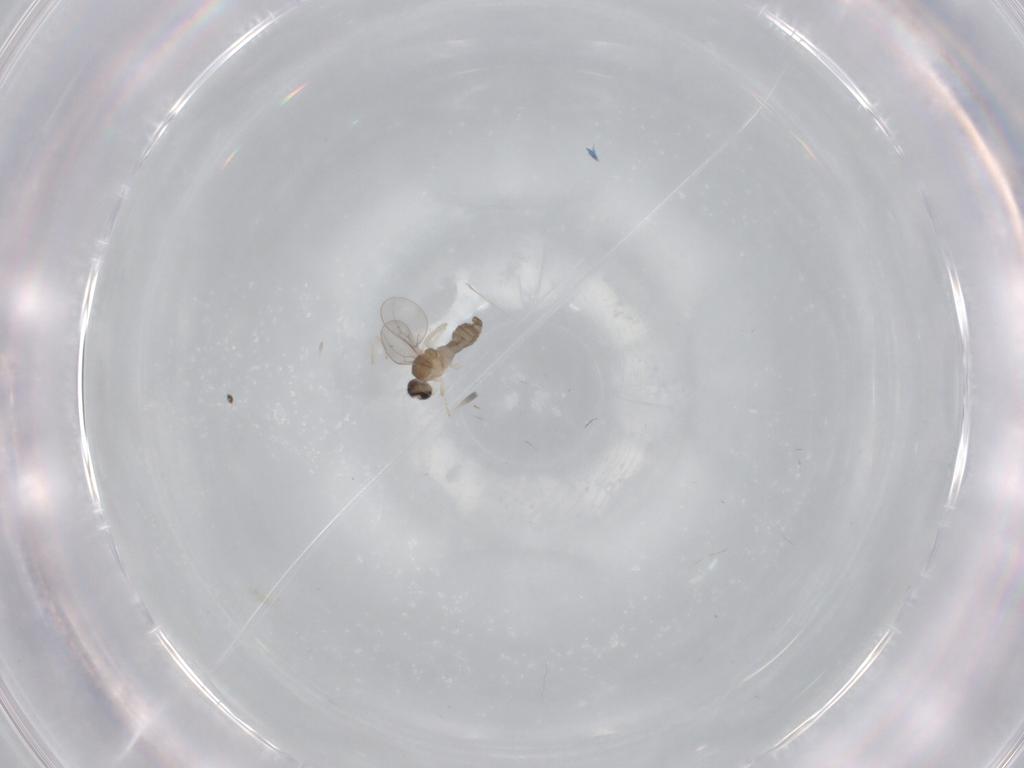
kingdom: Animalia
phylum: Arthropoda
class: Insecta
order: Diptera
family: Cecidomyiidae
